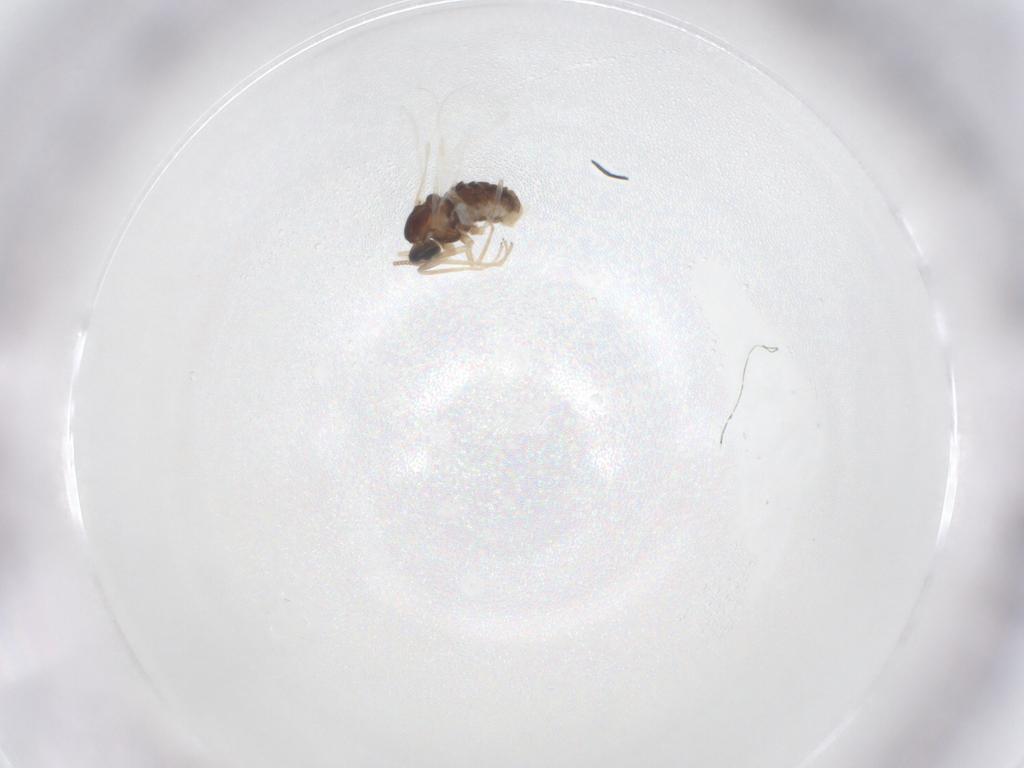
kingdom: Animalia
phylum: Arthropoda
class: Insecta
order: Diptera
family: Cecidomyiidae
